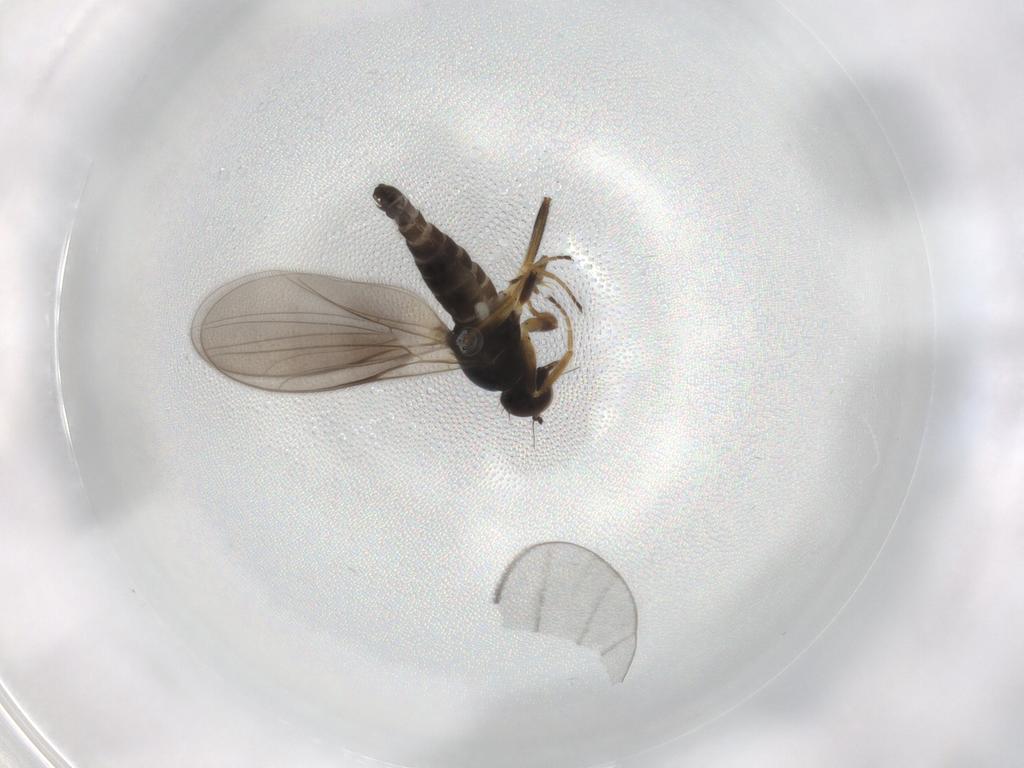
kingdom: Animalia
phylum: Arthropoda
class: Insecta
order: Diptera
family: Hybotidae
